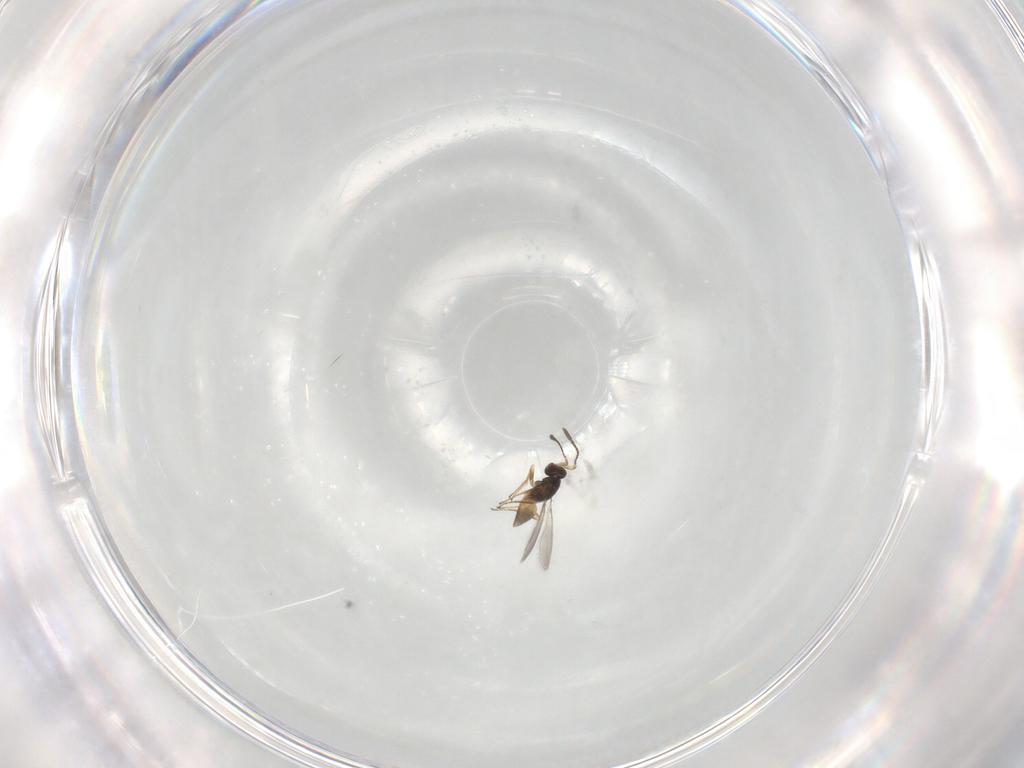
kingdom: Animalia
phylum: Arthropoda
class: Insecta
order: Hymenoptera
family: Mymaridae
